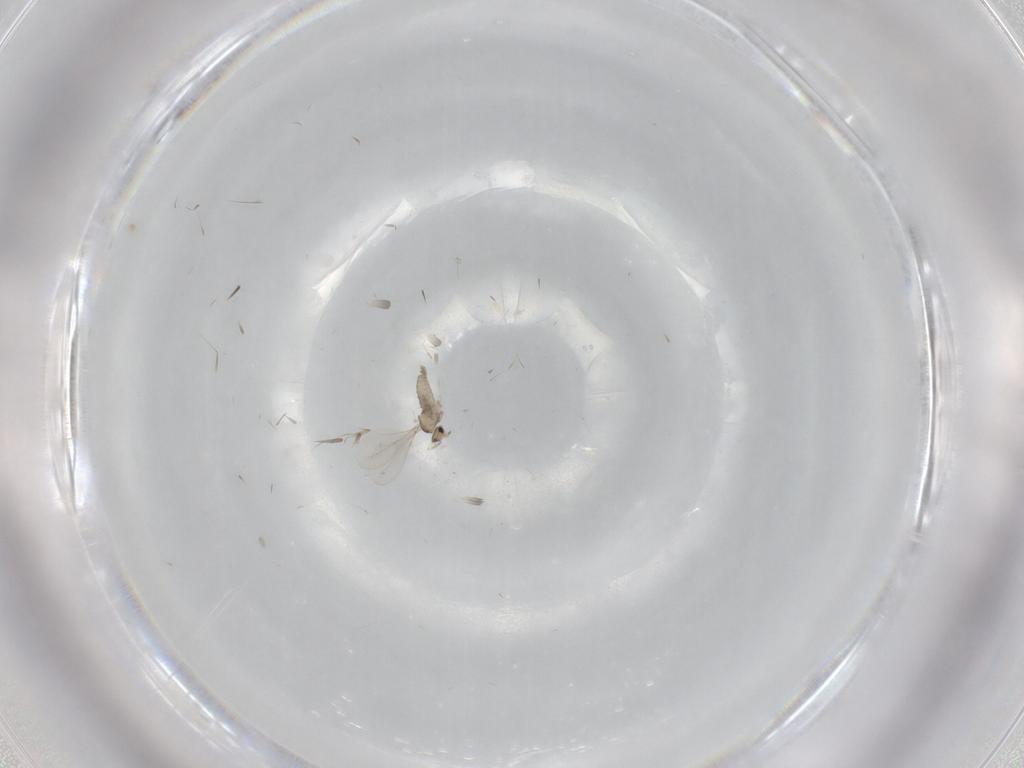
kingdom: Animalia
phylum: Arthropoda
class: Insecta
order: Diptera
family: Cecidomyiidae
